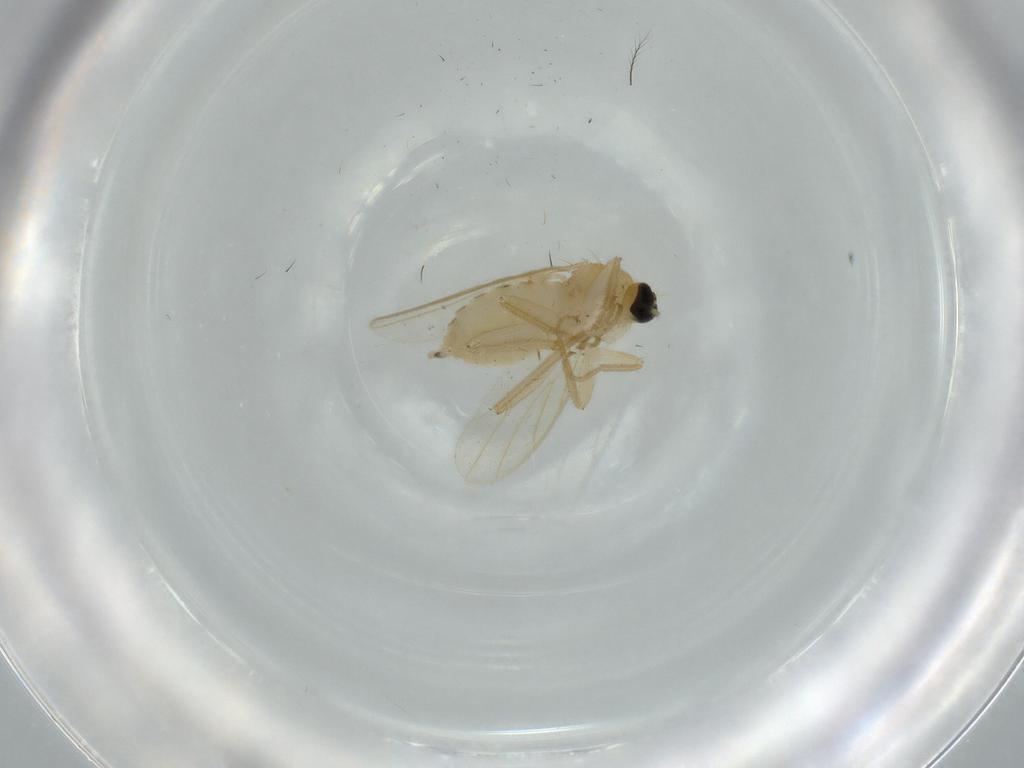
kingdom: Animalia
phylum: Arthropoda
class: Insecta
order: Diptera
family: Hybotidae
